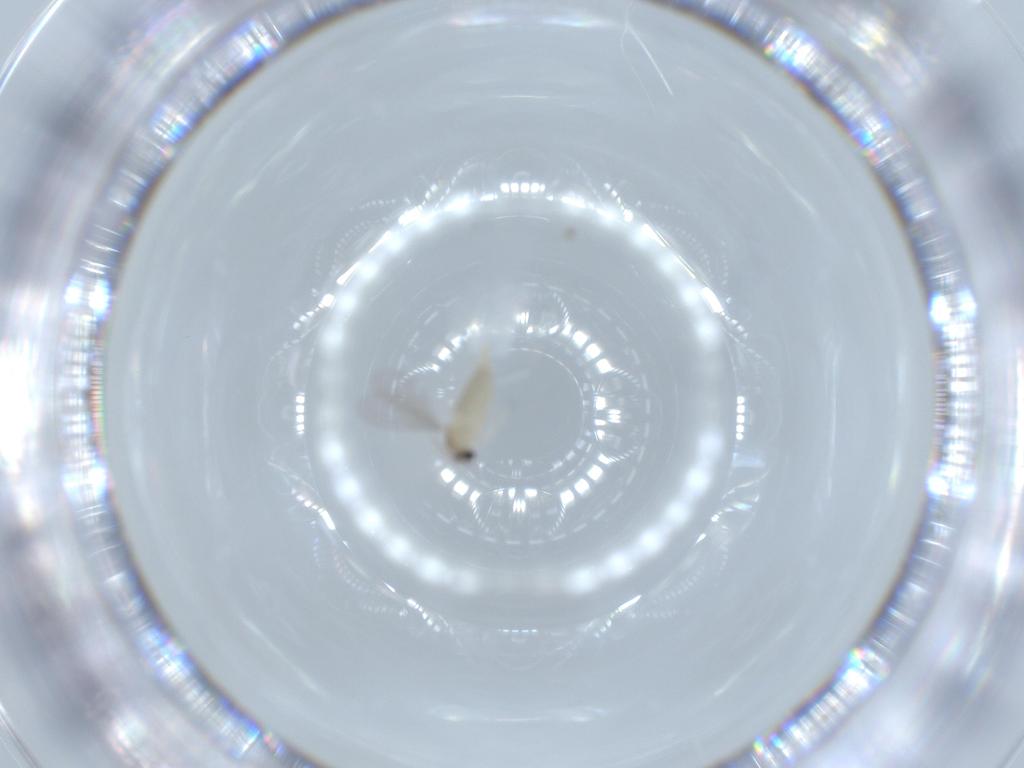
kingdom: Animalia
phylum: Arthropoda
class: Insecta
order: Diptera
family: Cecidomyiidae
